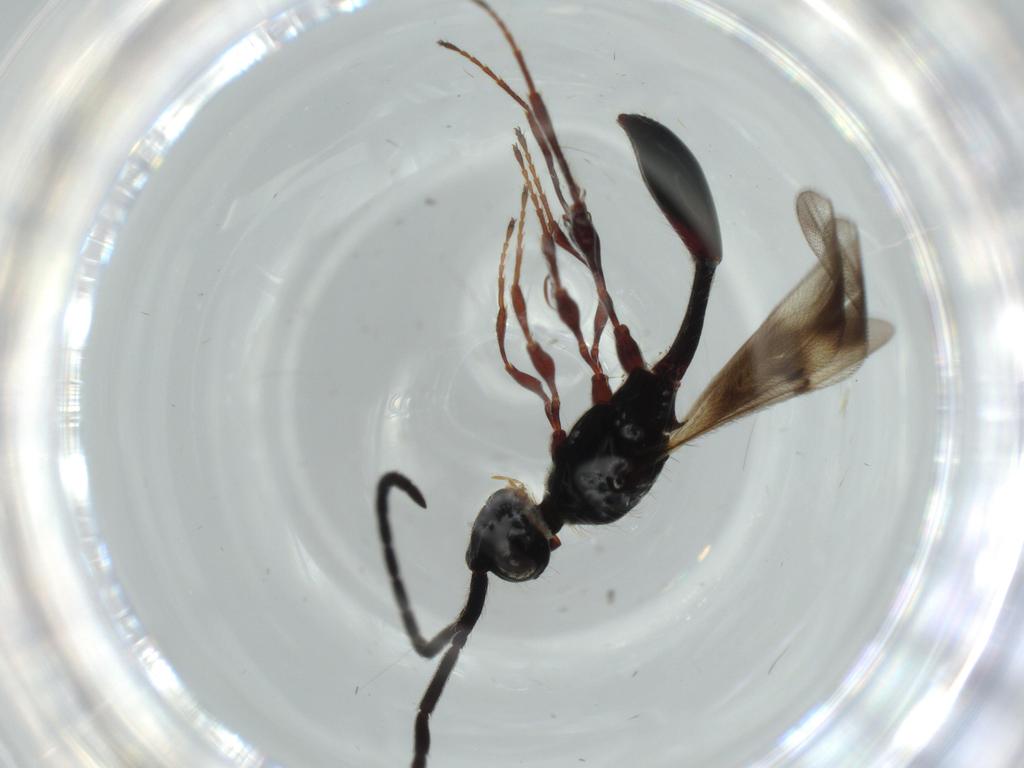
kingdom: Animalia
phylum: Arthropoda
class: Insecta
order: Hymenoptera
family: Diapriidae
